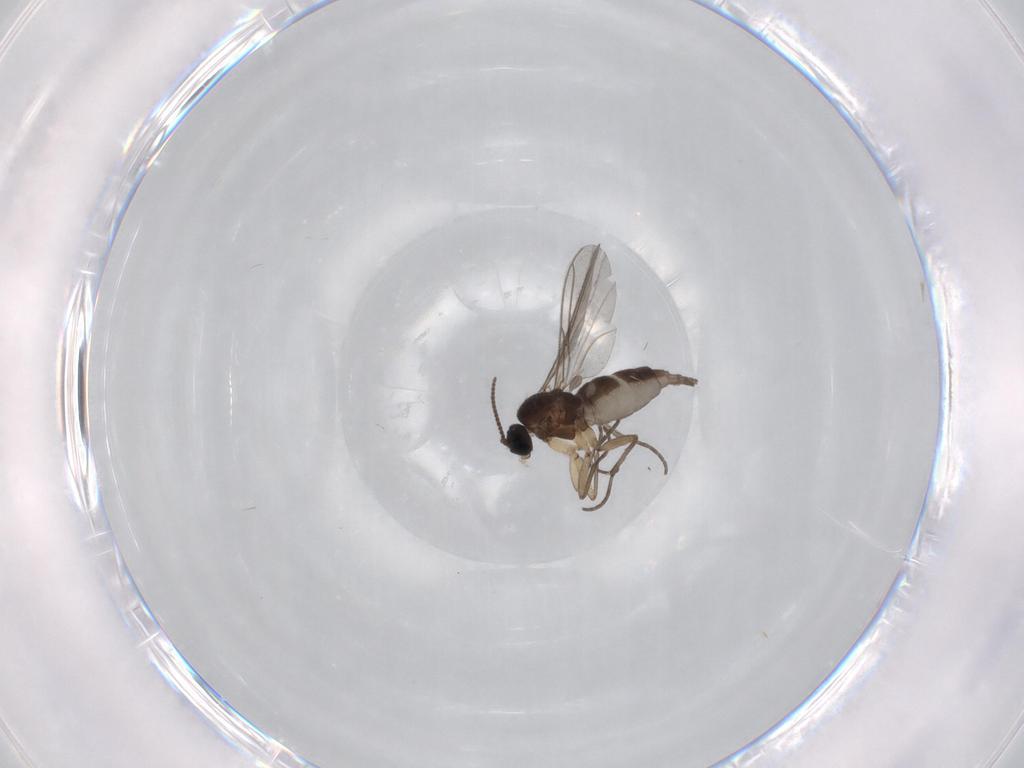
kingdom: Animalia
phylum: Arthropoda
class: Insecta
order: Diptera
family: Sciaridae
